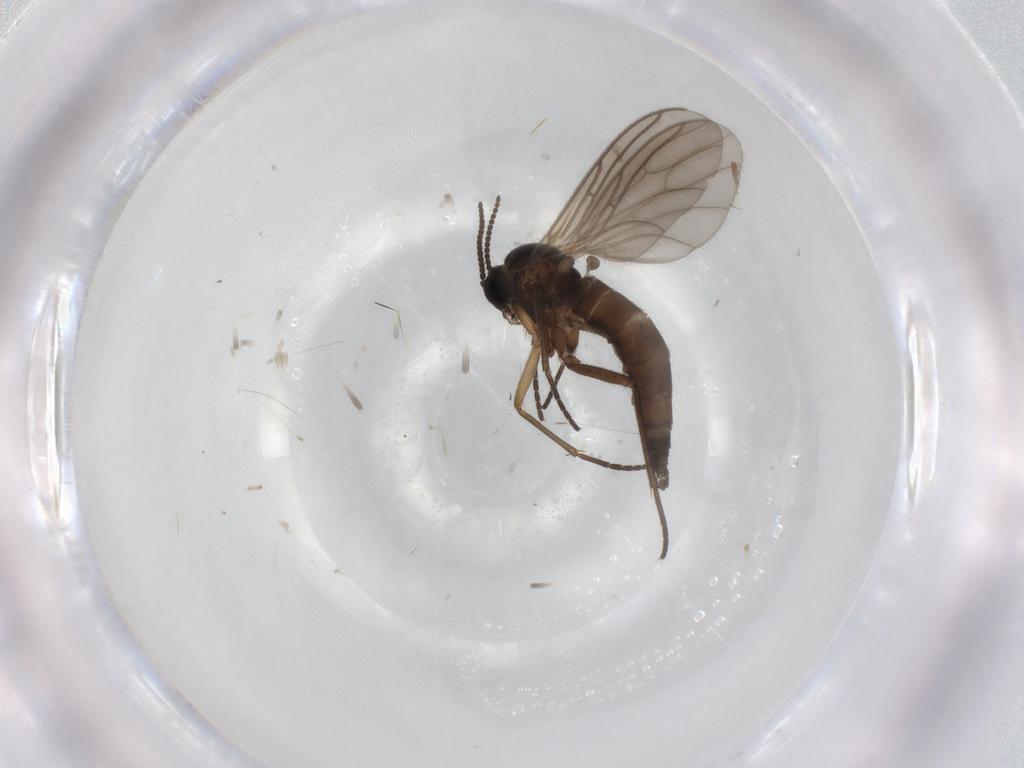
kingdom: Animalia
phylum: Arthropoda
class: Insecta
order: Diptera
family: Sciaridae
